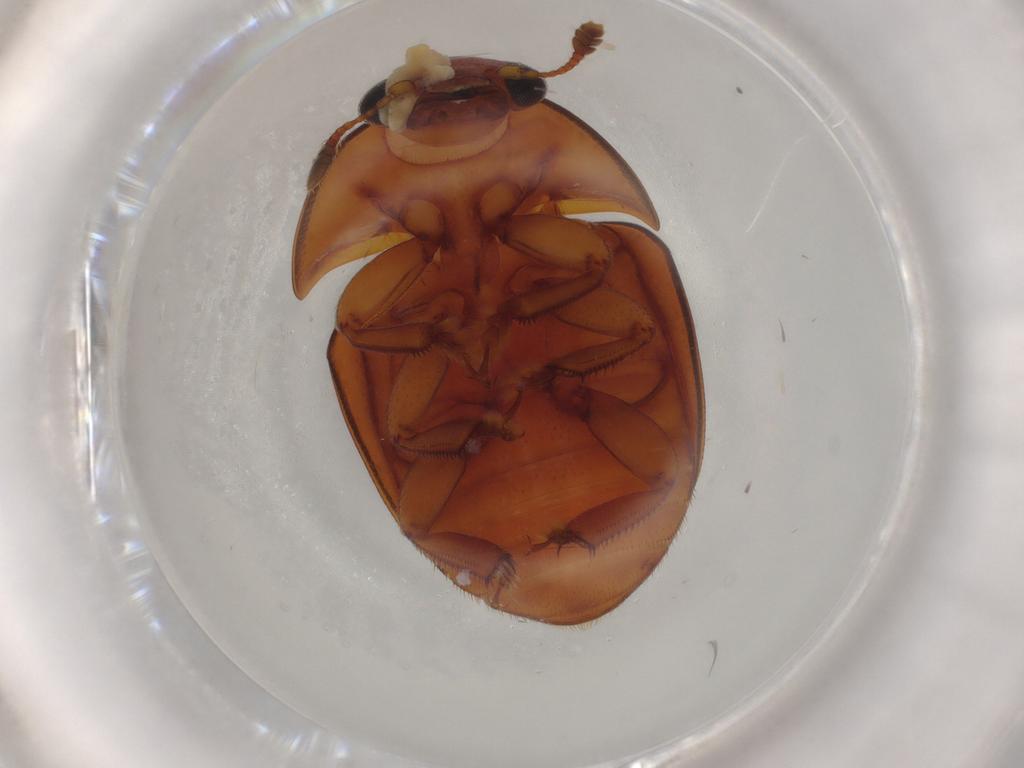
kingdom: Animalia
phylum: Arthropoda
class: Insecta
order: Coleoptera
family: Nitidulidae
